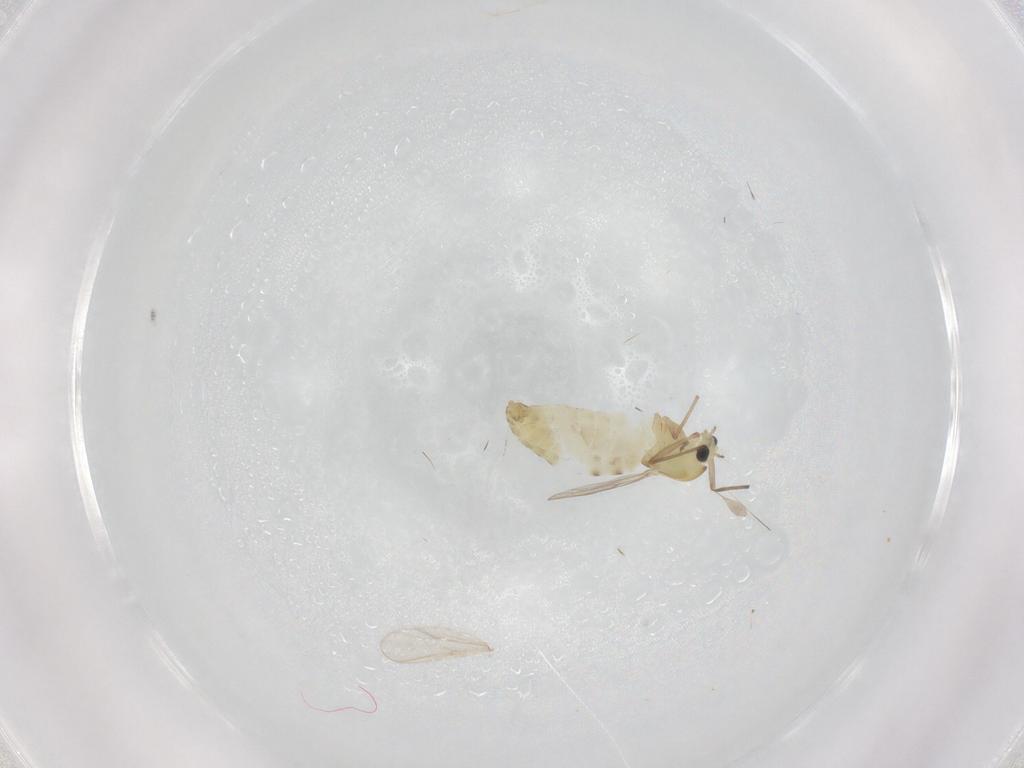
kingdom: Animalia
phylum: Arthropoda
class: Insecta
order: Diptera
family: Chironomidae
